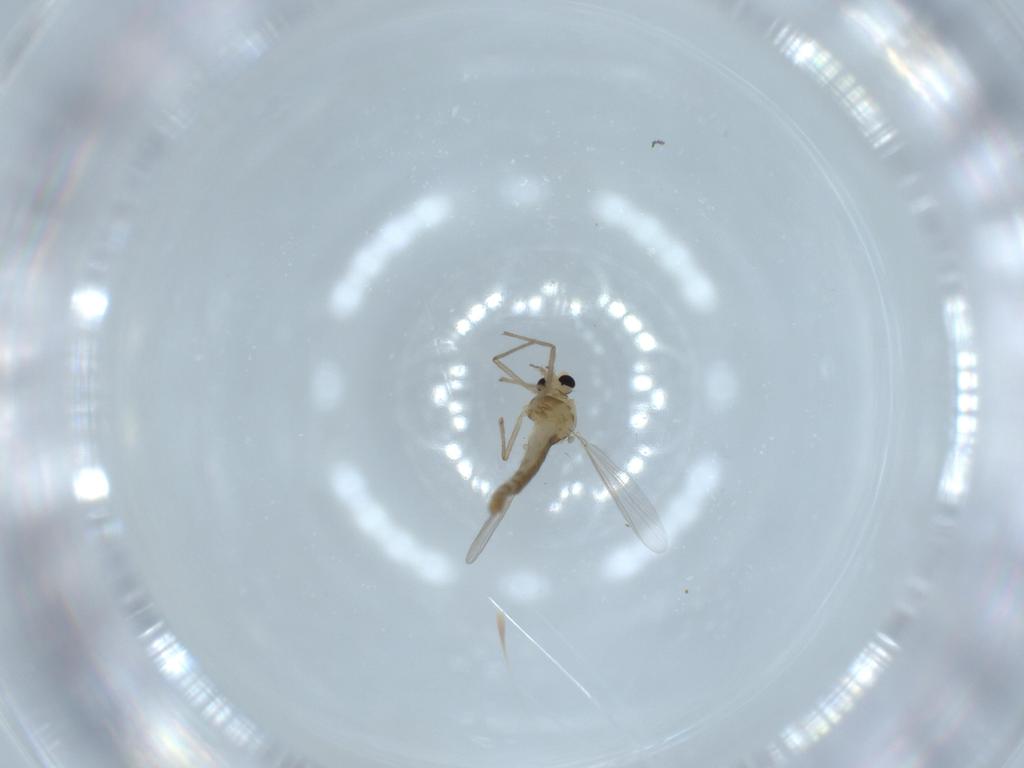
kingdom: Animalia
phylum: Arthropoda
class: Insecta
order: Diptera
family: Chironomidae
